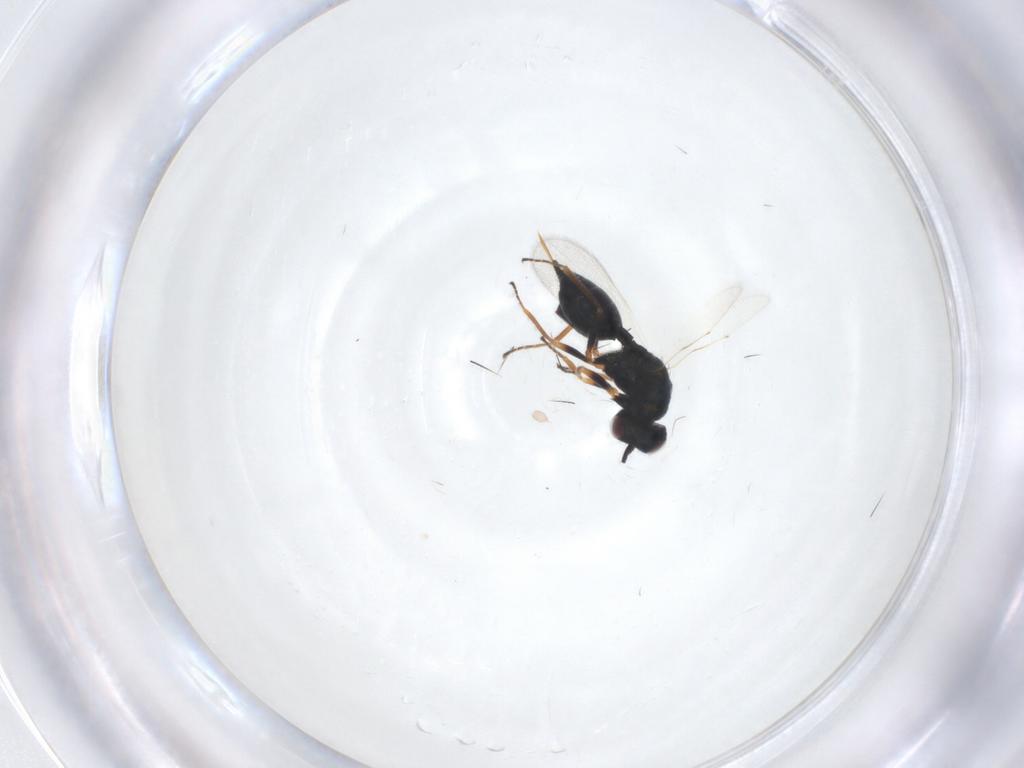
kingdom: Animalia
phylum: Arthropoda
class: Insecta
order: Hymenoptera
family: Chalcidoidea_incertae_sedis
